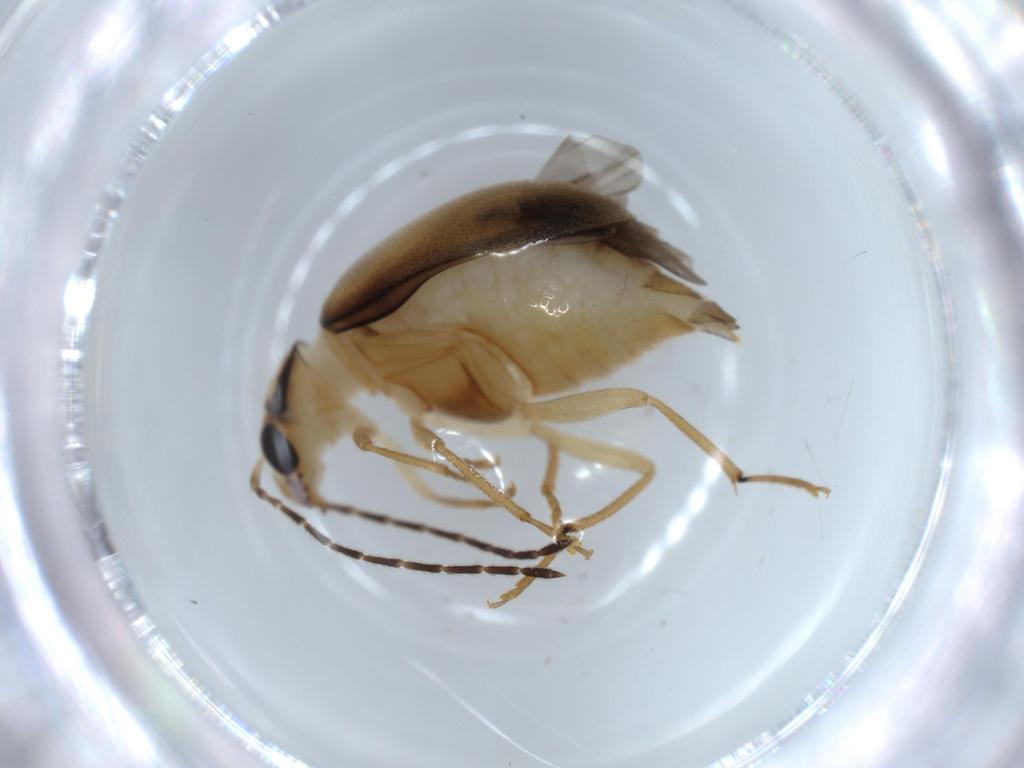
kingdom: Animalia
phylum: Arthropoda
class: Insecta
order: Coleoptera
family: Chrysomelidae
